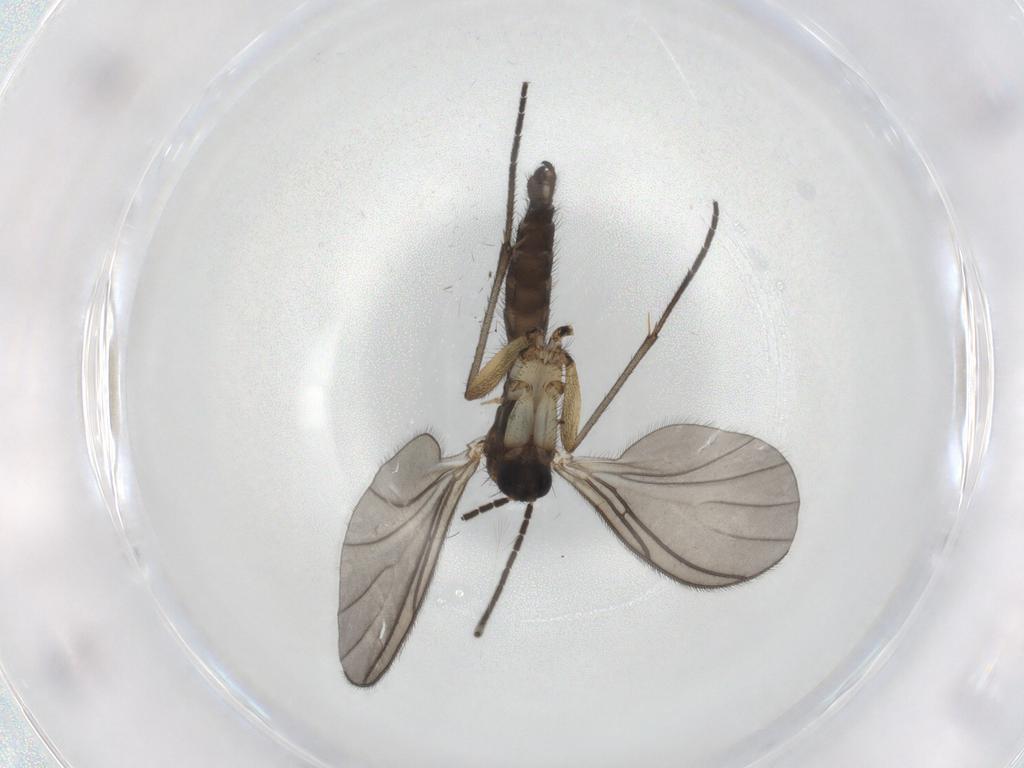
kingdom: Animalia
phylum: Arthropoda
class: Insecta
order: Diptera
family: Sciaridae
